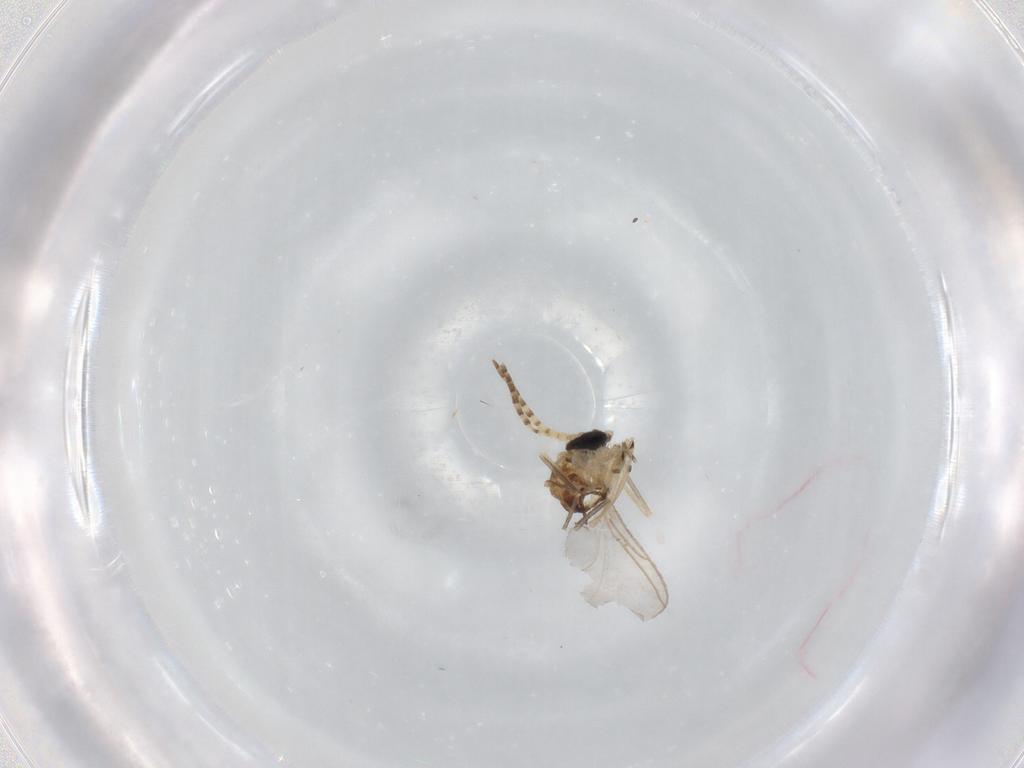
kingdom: Animalia
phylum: Arthropoda
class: Insecta
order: Diptera
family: Sciaridae
